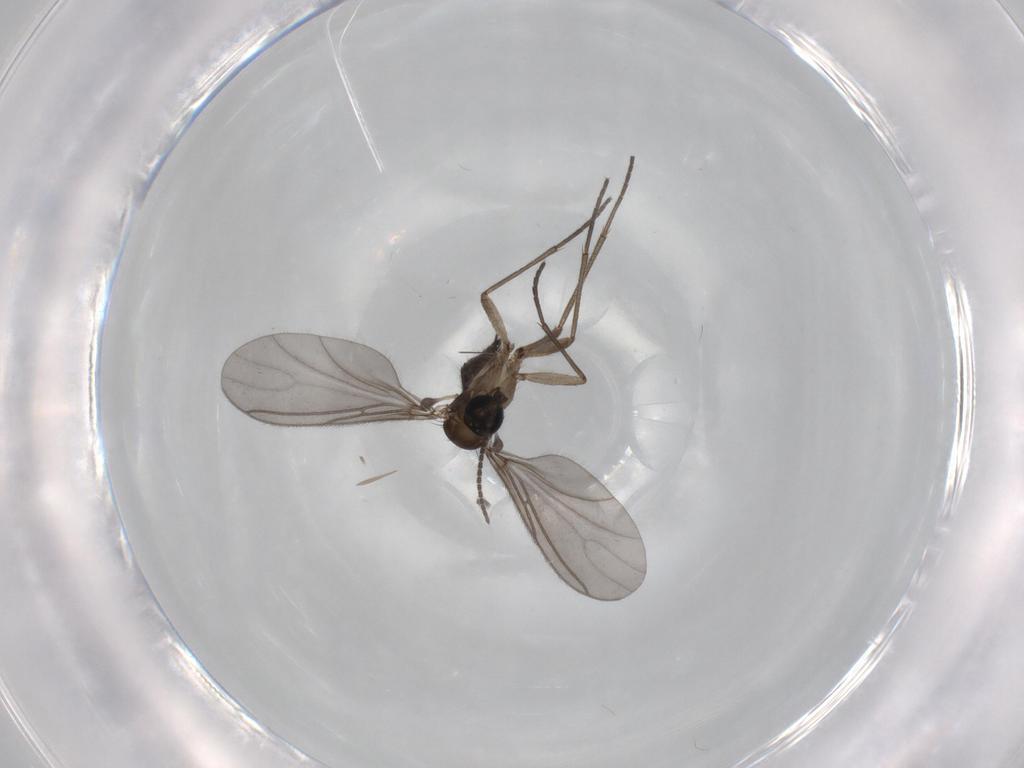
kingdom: Animalia
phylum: Arthropoda
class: Insecta
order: Diptera
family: Sciaridae
